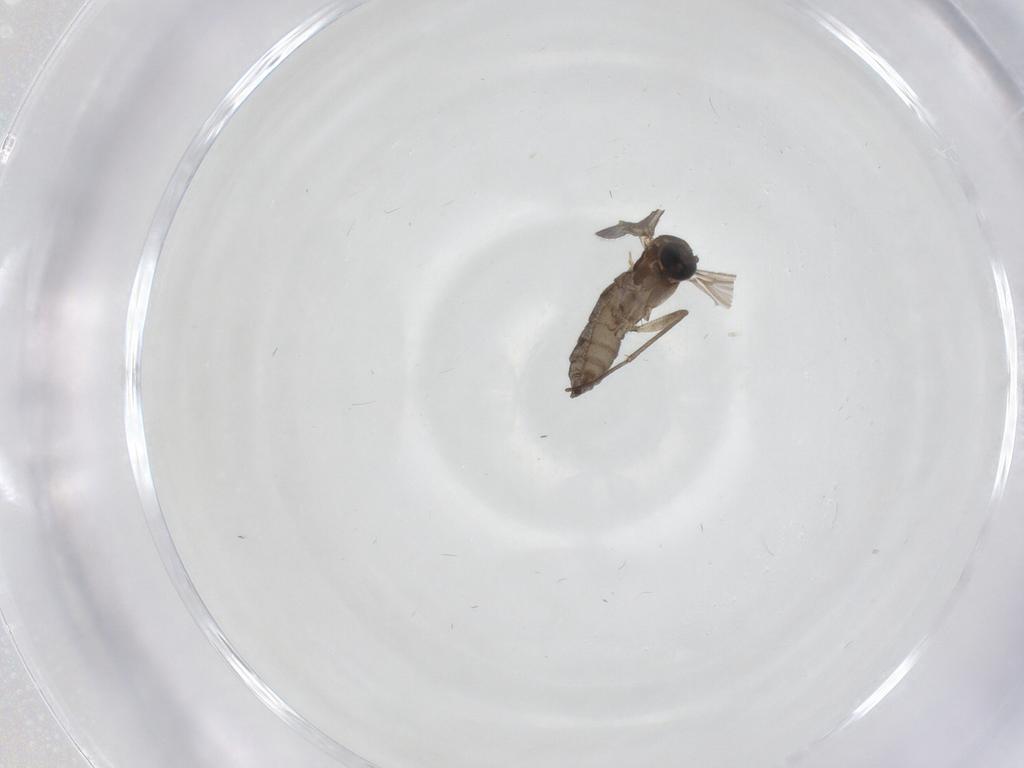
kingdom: Animalia
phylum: Arthropoda
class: Insecta
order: Diptera
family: Sciaridae
